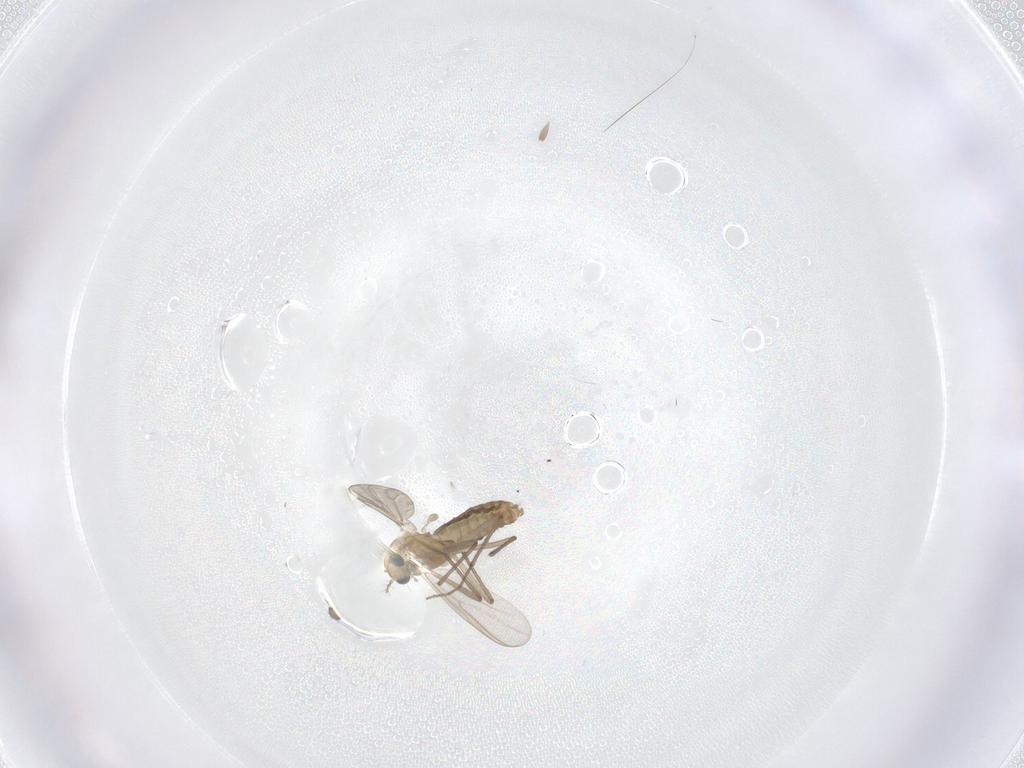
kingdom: Animalia
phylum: Arthropoda
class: Insecta
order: Diptera
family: Chironomidae
